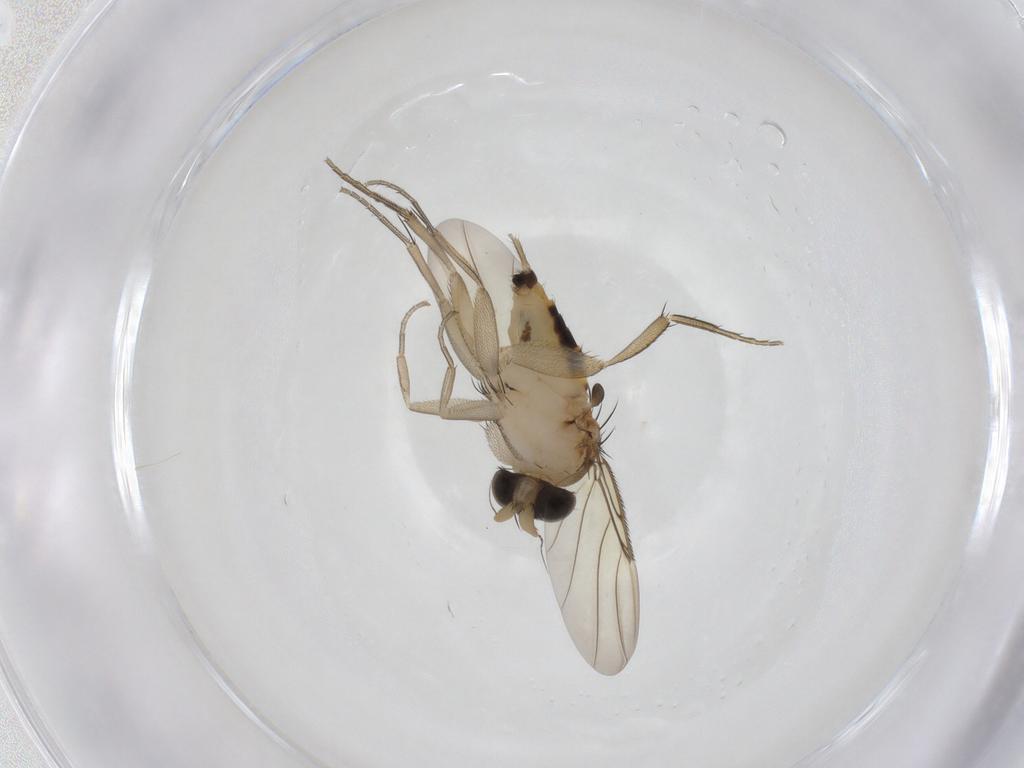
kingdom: Animalia
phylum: Arthropoda
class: Insecta
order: Diptera
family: Phoridae
